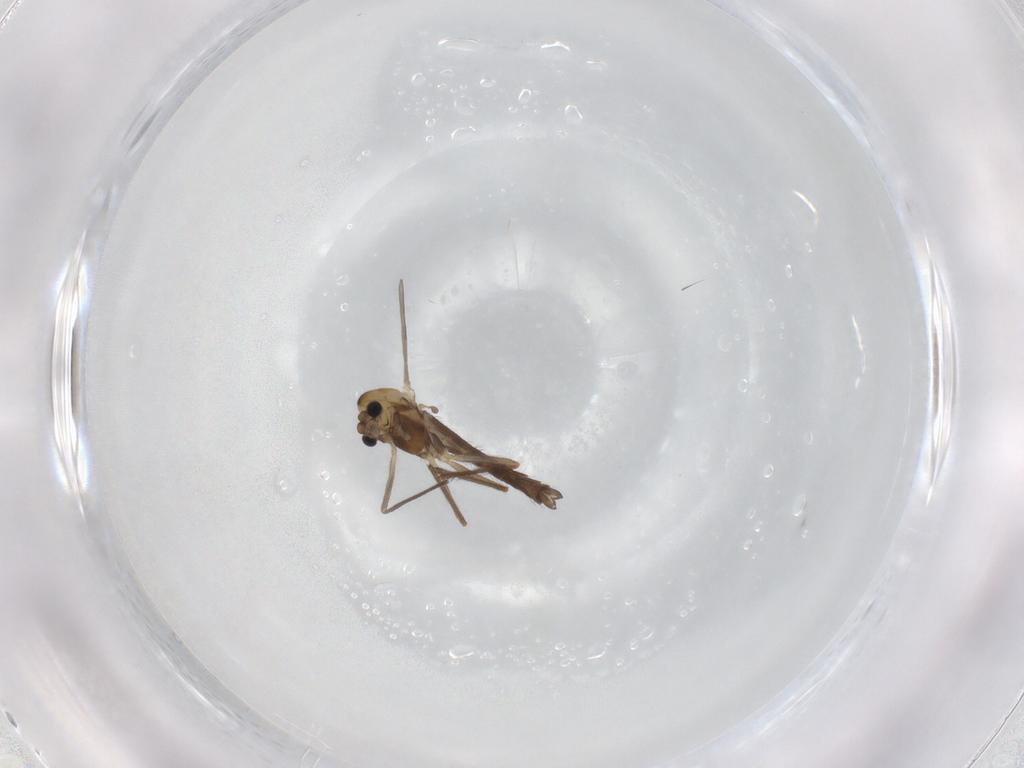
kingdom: Animalia
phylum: Arthropoda
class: Insecta
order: Diptera
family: Chironomidae
